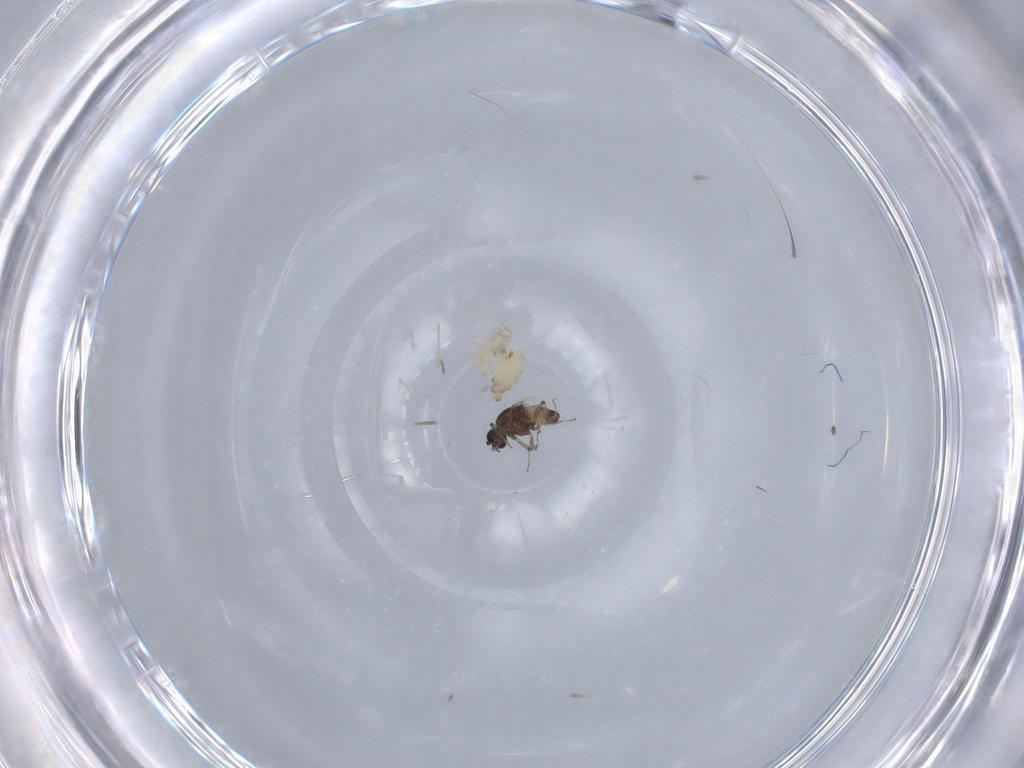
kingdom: Animalia
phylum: Arthropoda
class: Insecta
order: Diptera
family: Cecidomyiidae
